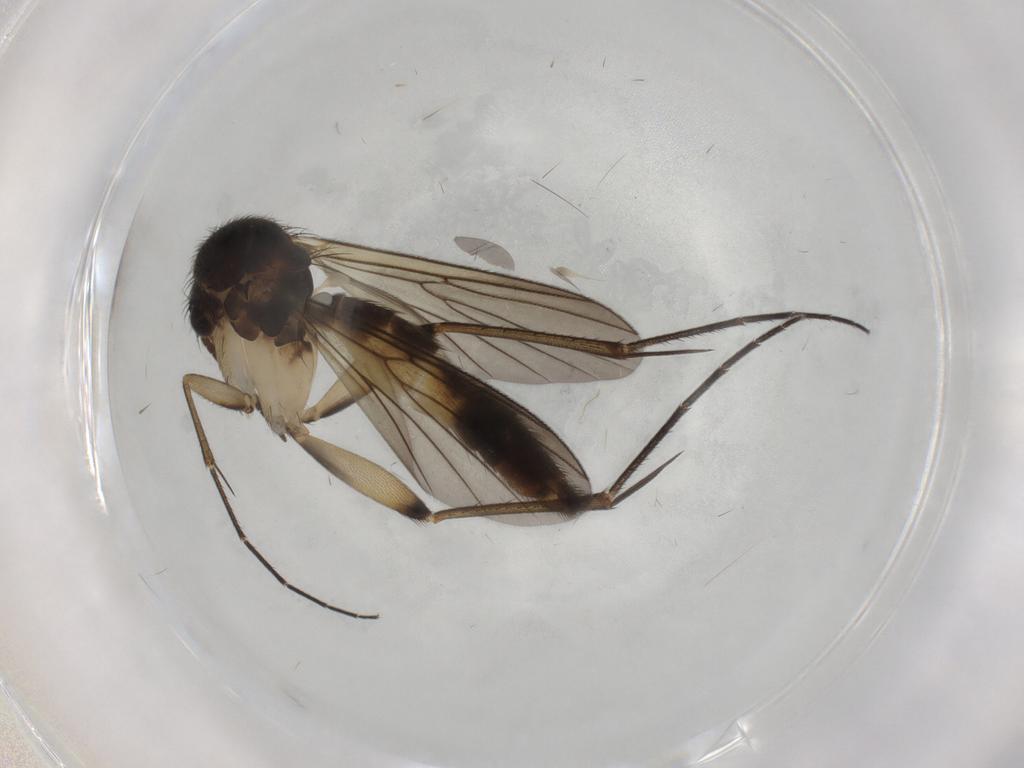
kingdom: Animalia
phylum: Arthropoda
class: Insecta
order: Diptera
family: Mycetophilidae
